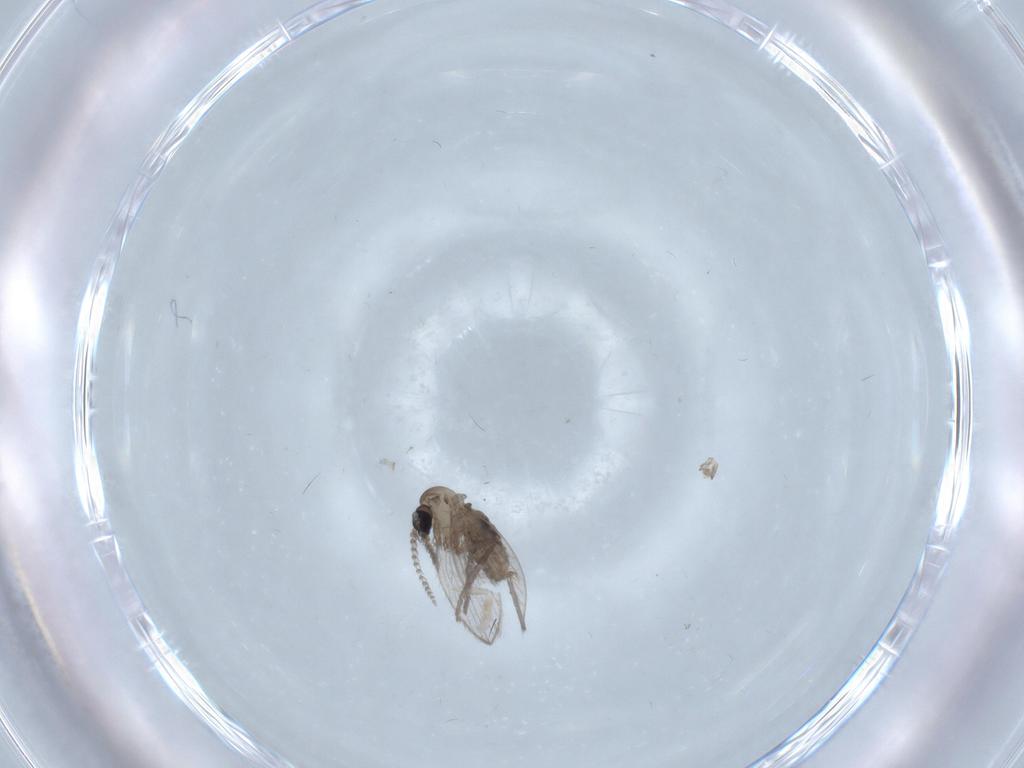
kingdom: Animalia
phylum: Arthropoda
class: Insecta
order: Diptera
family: Psychodidae
